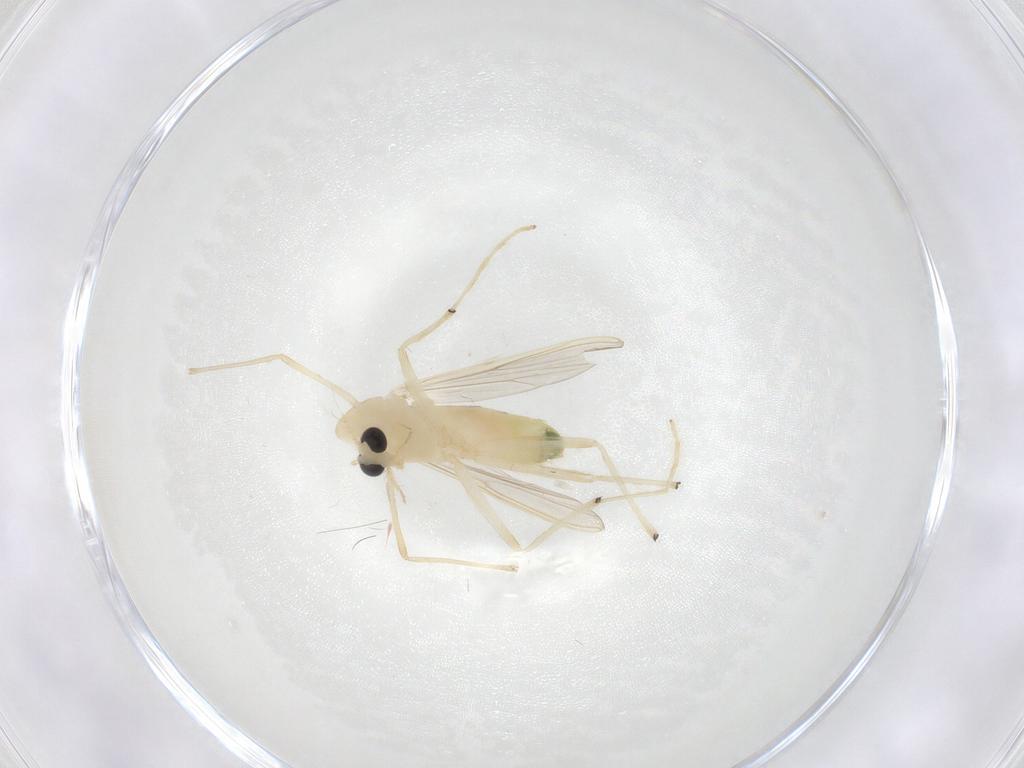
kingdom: Animalia
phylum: Arthropoda
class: Insecta
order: Diptera
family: Chironomidae
